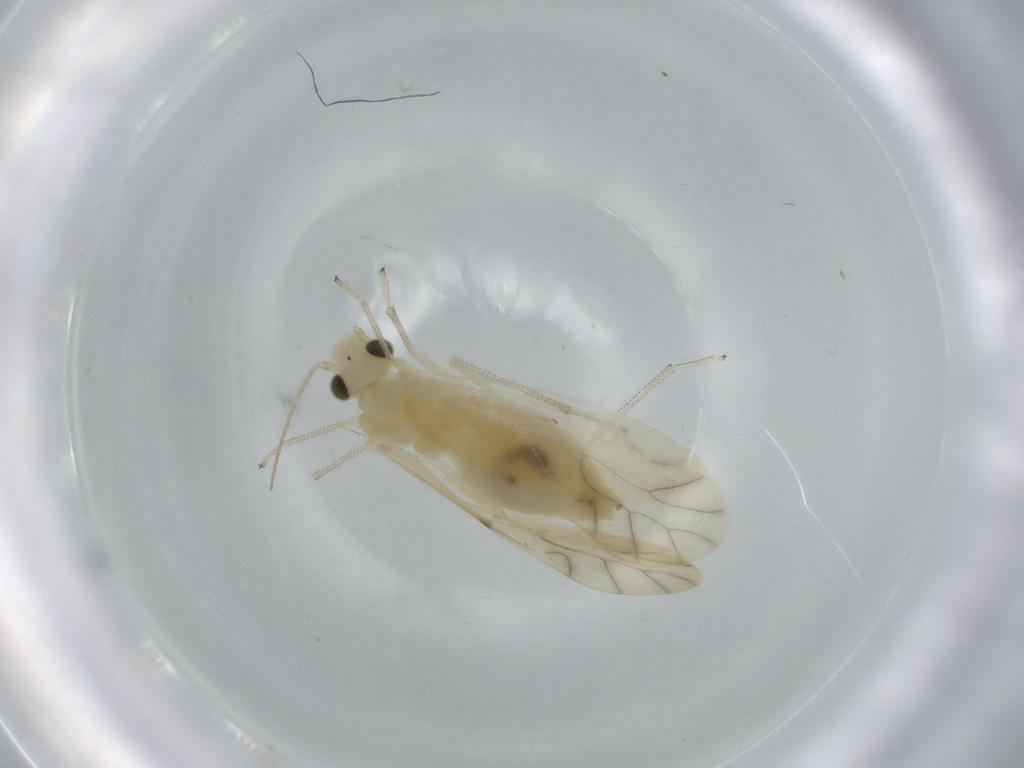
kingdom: Animalia
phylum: Arthropoda
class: Insecta
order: Psocodea
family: Caeciliusidae
